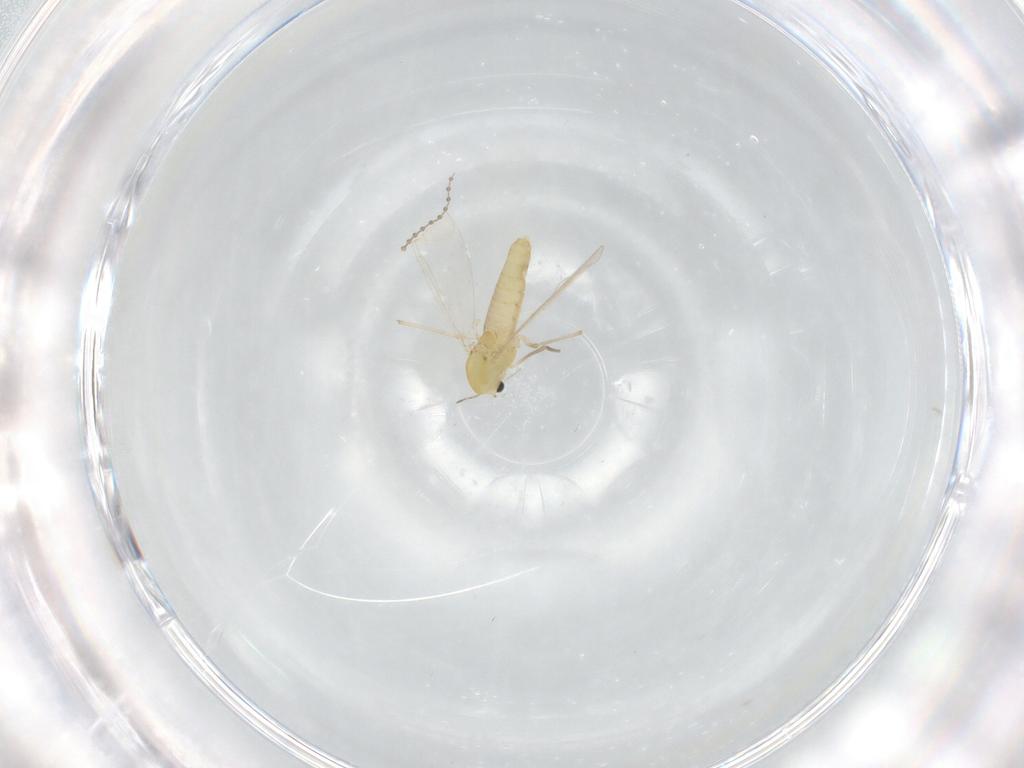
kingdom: Animalia
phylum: Arthropoda
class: Insecta
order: Diptera
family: Chironomidae
